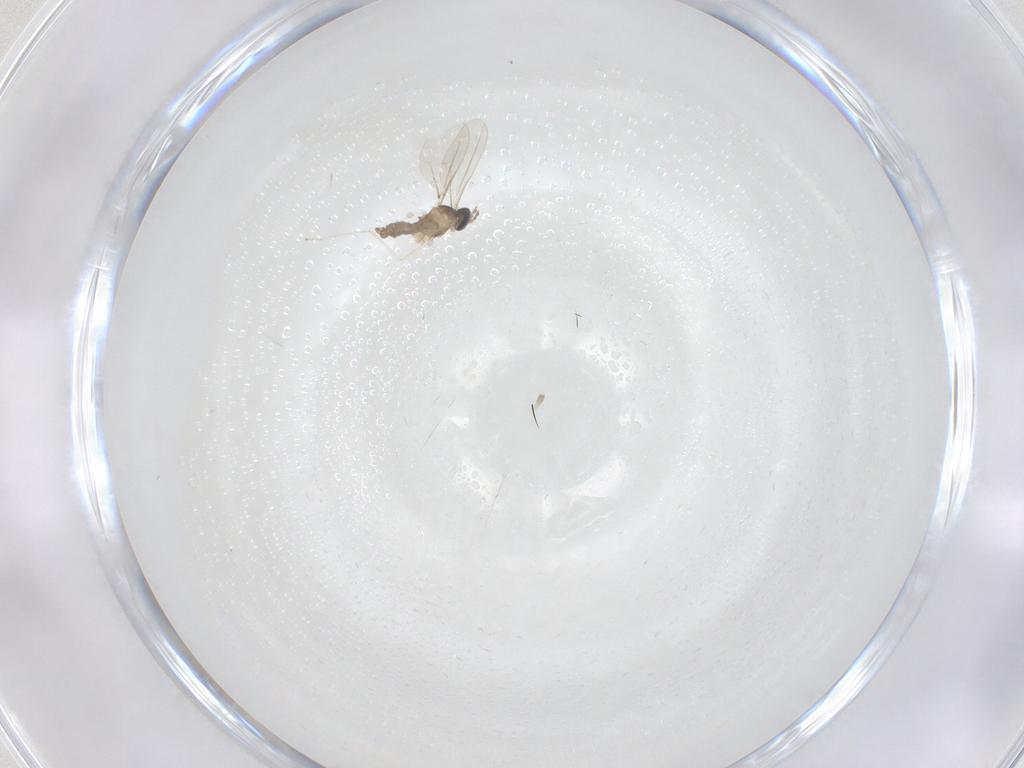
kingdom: Animalia
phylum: Arthropoda
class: Insecta
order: Diptera
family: Cecidomyiidae
